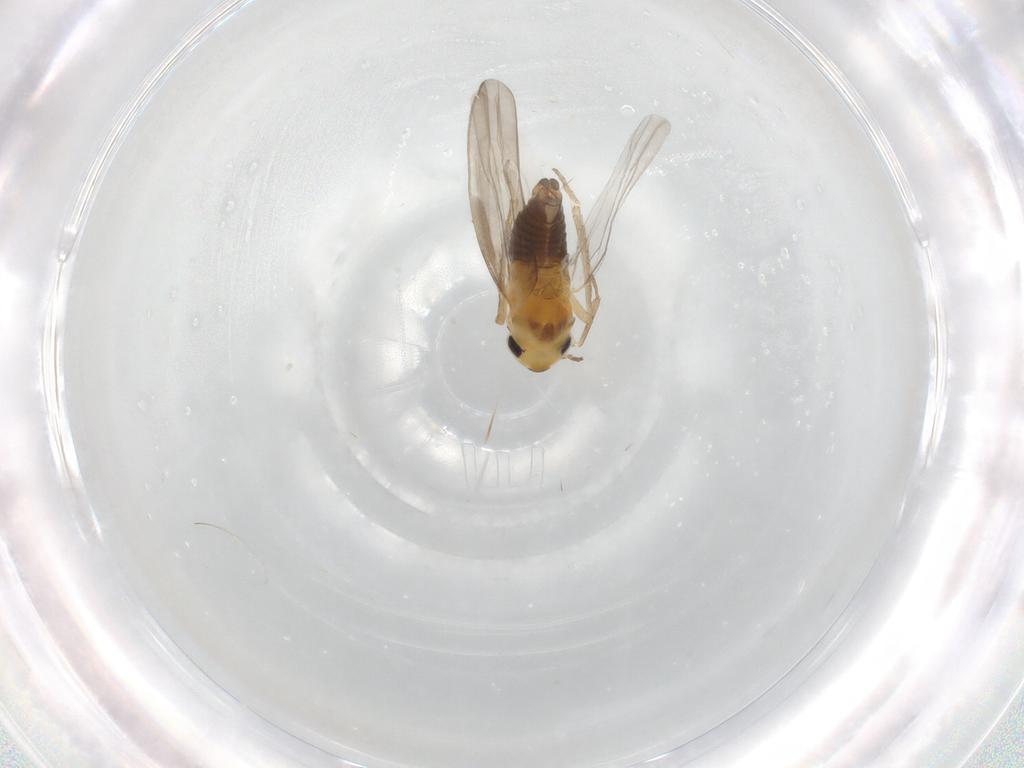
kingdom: Animalia
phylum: Arthropoda
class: Insecta
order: Hemiptera
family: Cicadellidae
